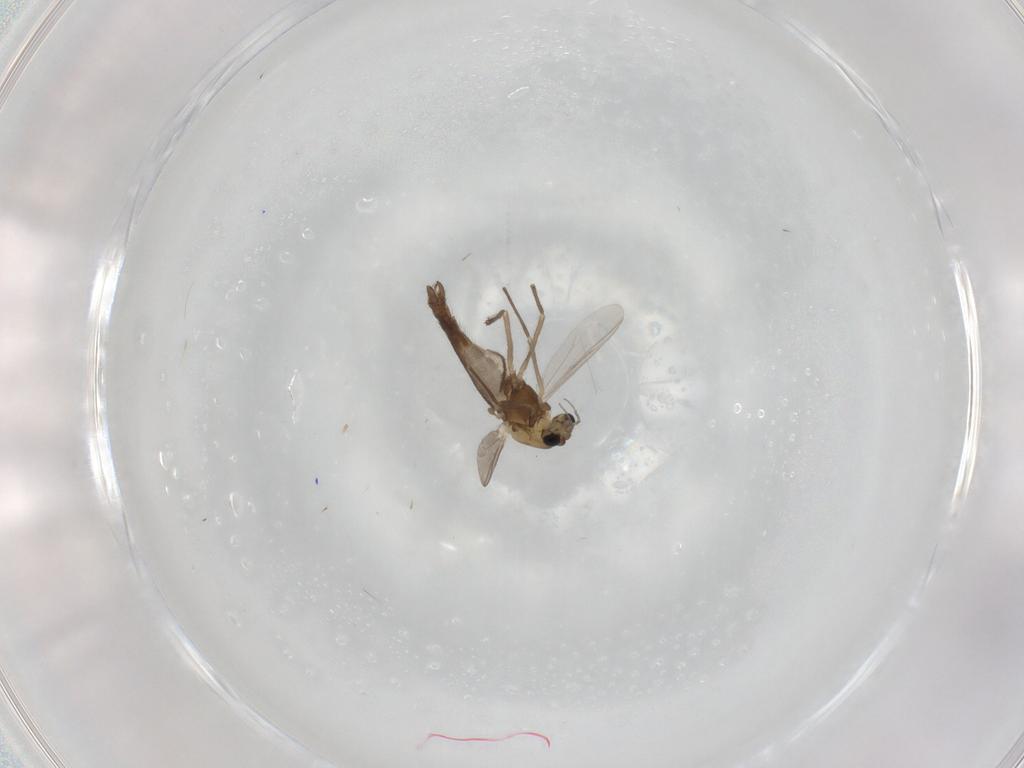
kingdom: Animalia
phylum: Arthropoda
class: Insecta
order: Diptera
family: Chironomidae
